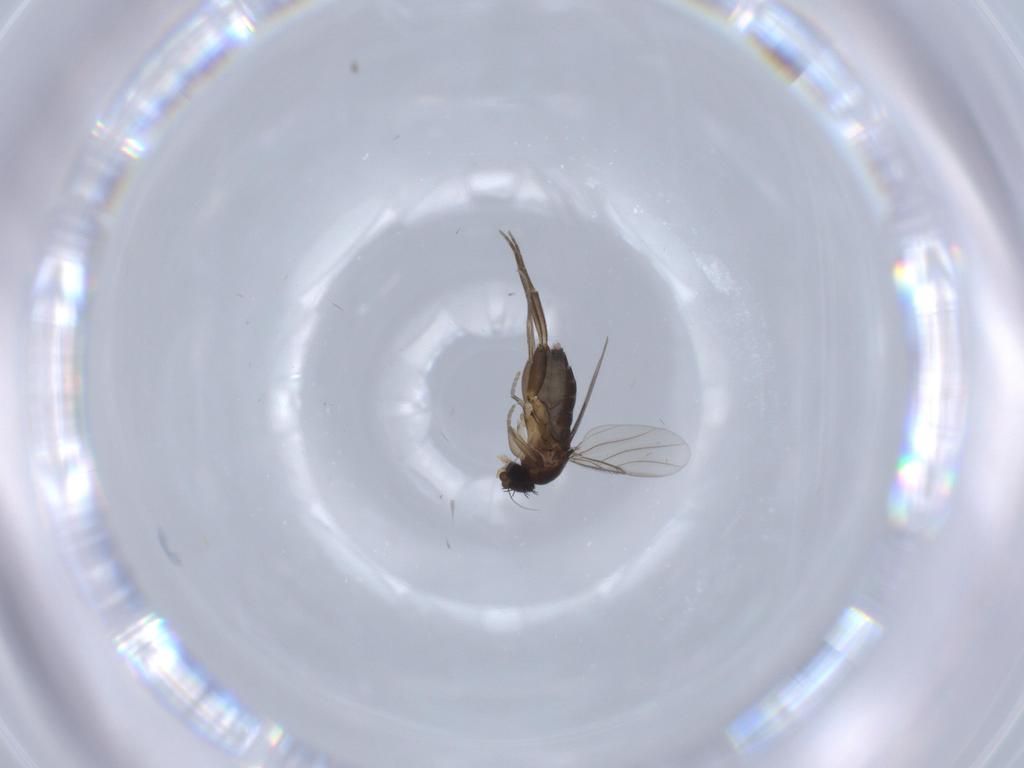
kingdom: Animalia
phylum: Arthropoda
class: Insecta
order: Diptera
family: Phoridae
